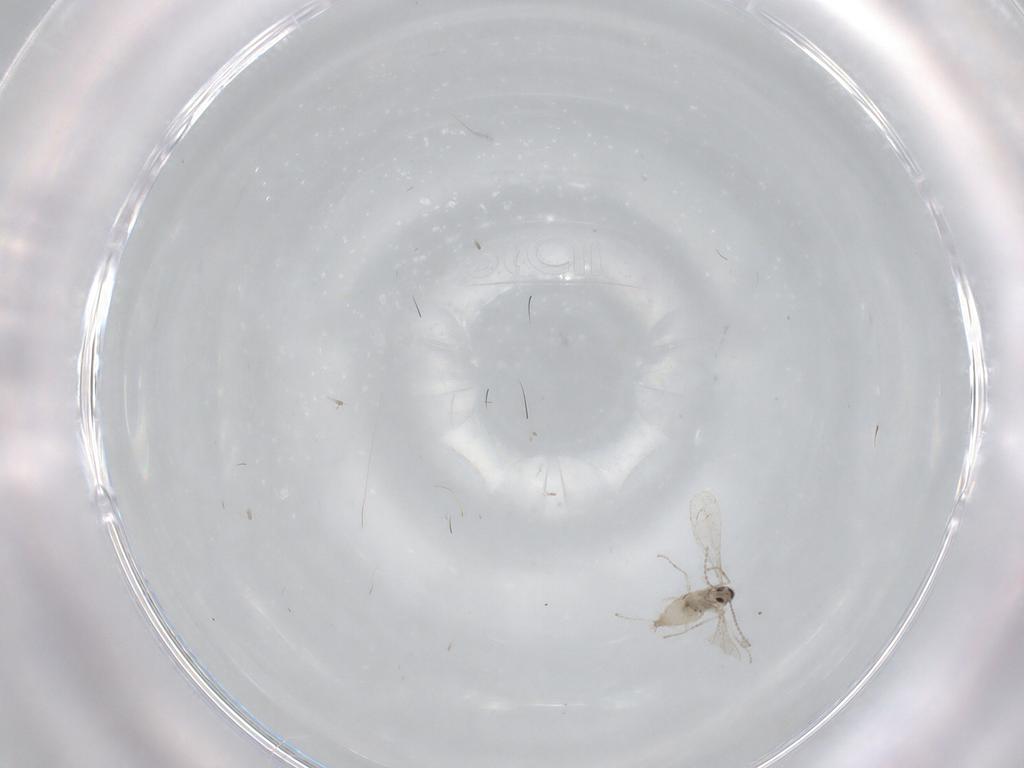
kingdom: Animalia
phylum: Arthropoda
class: Insecta
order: Diptera
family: Cecidomyiidae
